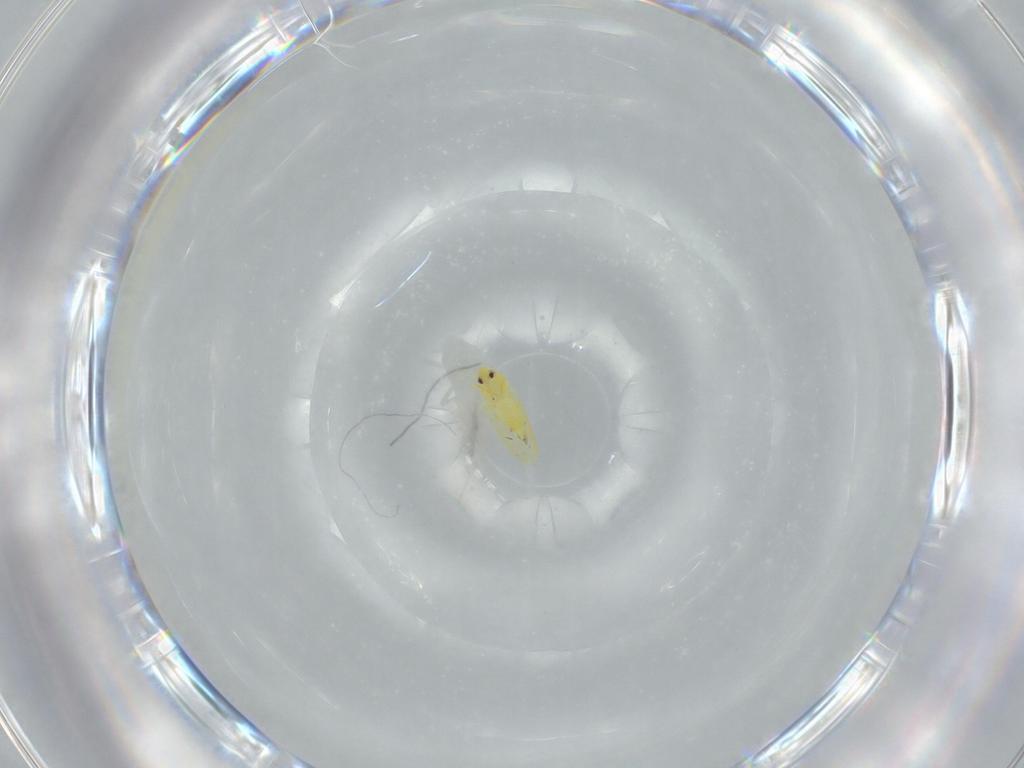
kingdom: Animalia
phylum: Arthropoda
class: Insecta
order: Hemiptera
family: Aleyrodidae
